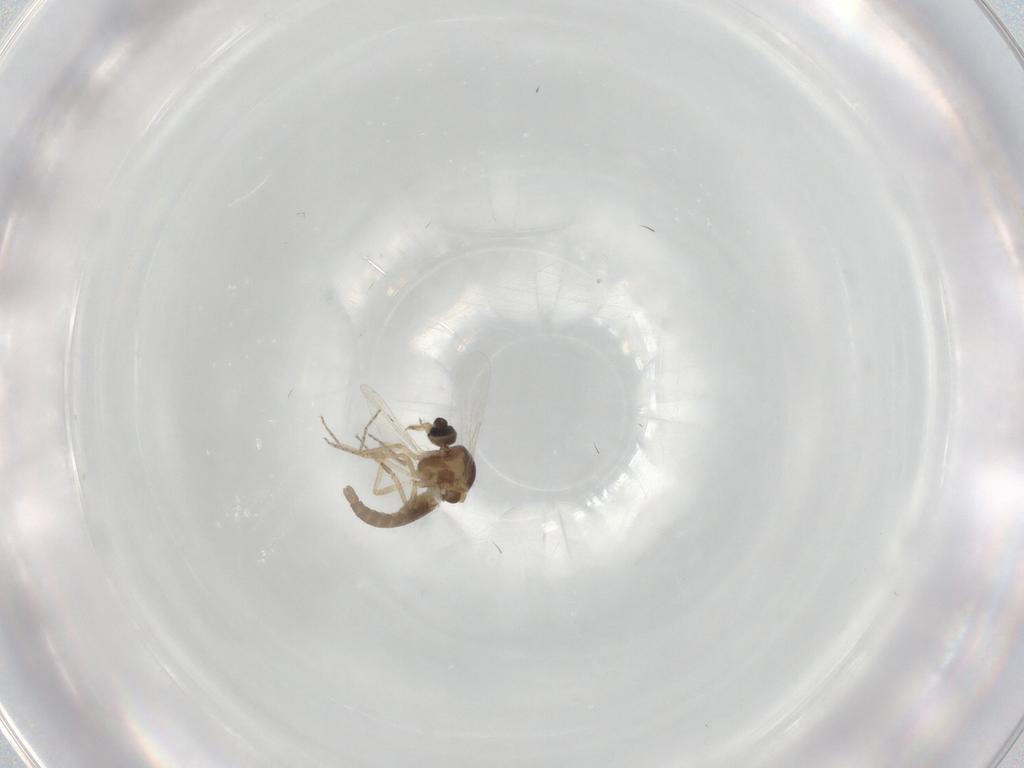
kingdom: Animalia
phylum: Arthropoda
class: Insecta
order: Diptera
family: Ceratopogonidae
